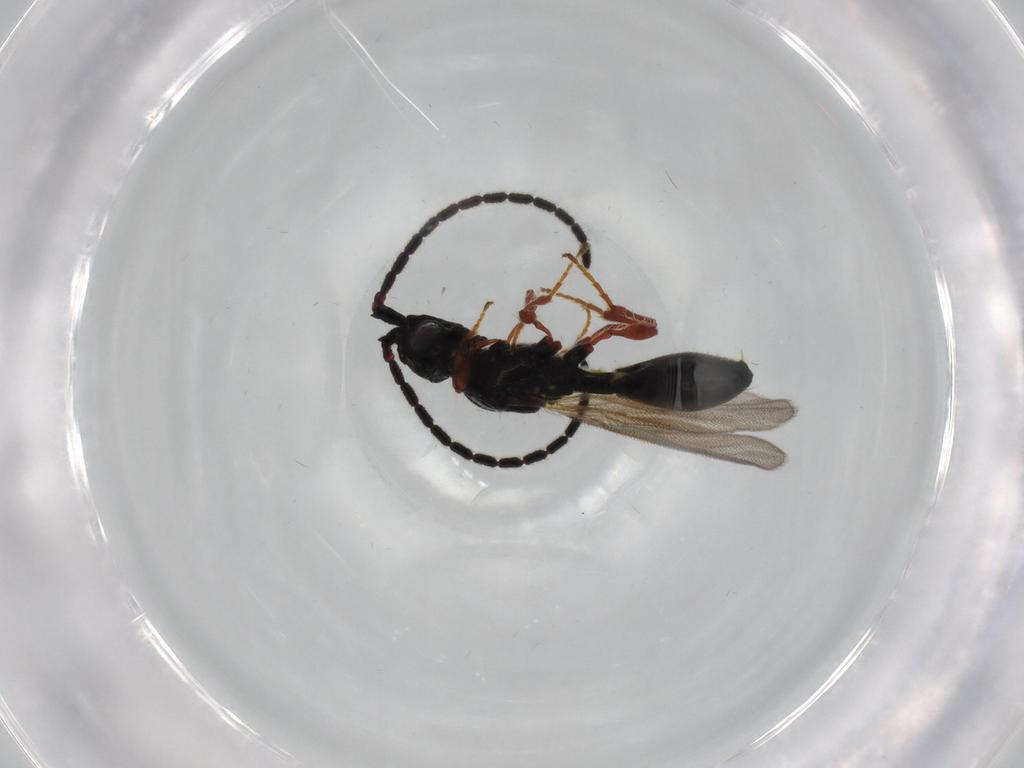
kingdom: Animalia
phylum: Arthropoda
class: Insecta
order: Hymenoptera
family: Diapriidae
